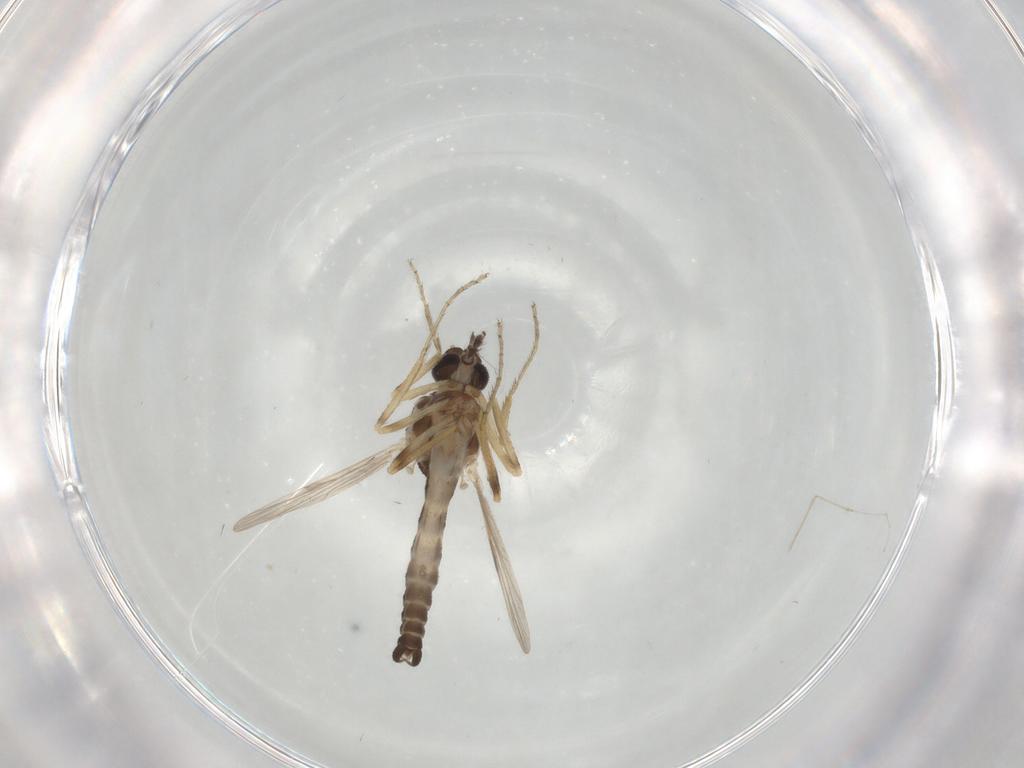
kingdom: Animalia
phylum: Arthropoda
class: Insecta
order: Diptera
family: Ceratopogonidae
